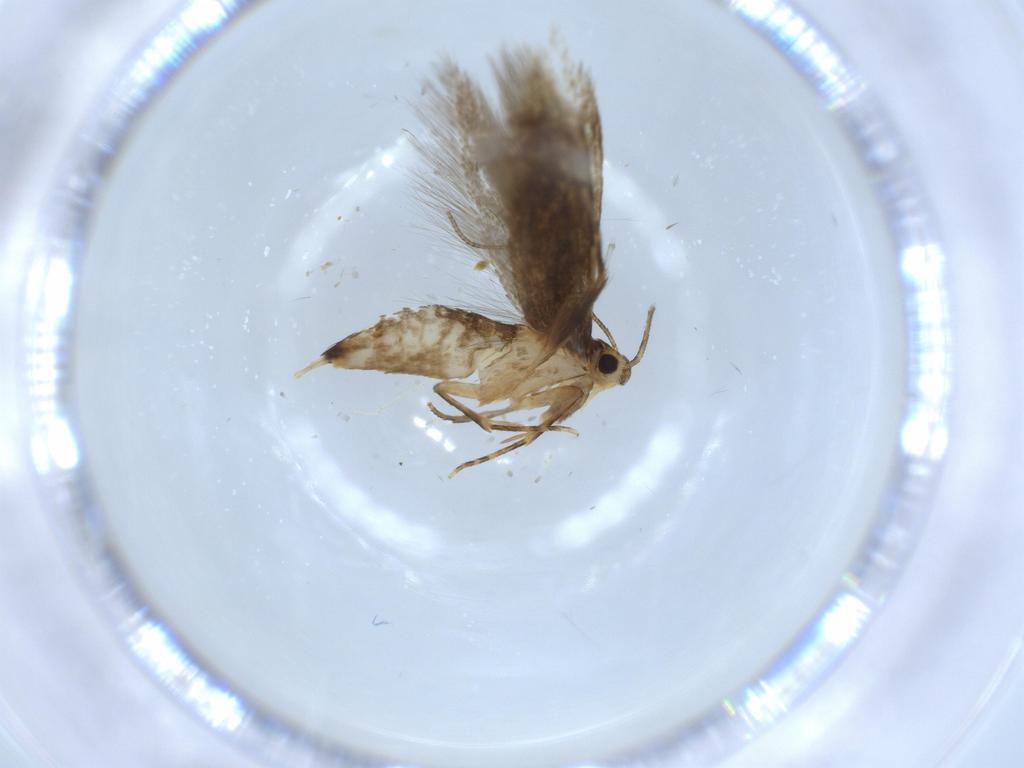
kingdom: Animalia
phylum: Arthropoda
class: Insecta
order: Lepidoptera
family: Tineidae
